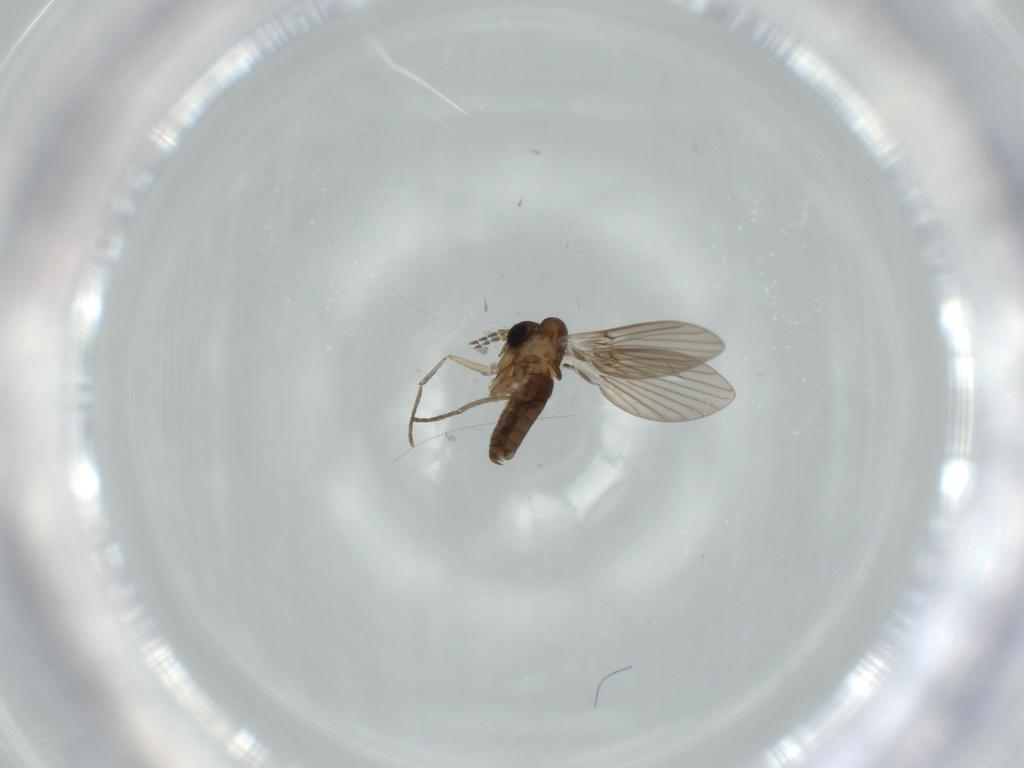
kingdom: Animalia
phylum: Arthropoda
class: Insecta
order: Diptera
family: Psychodidae
